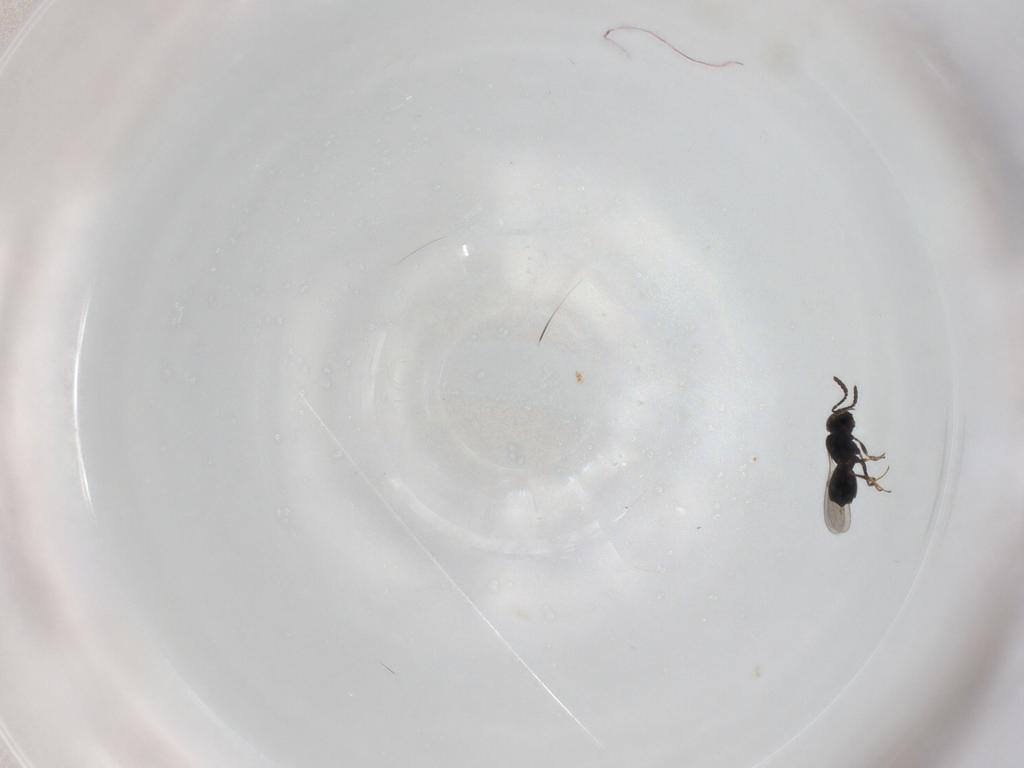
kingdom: Animalia
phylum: Arthropoda
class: Insecta
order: Hymenoptera
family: Scelionidae
